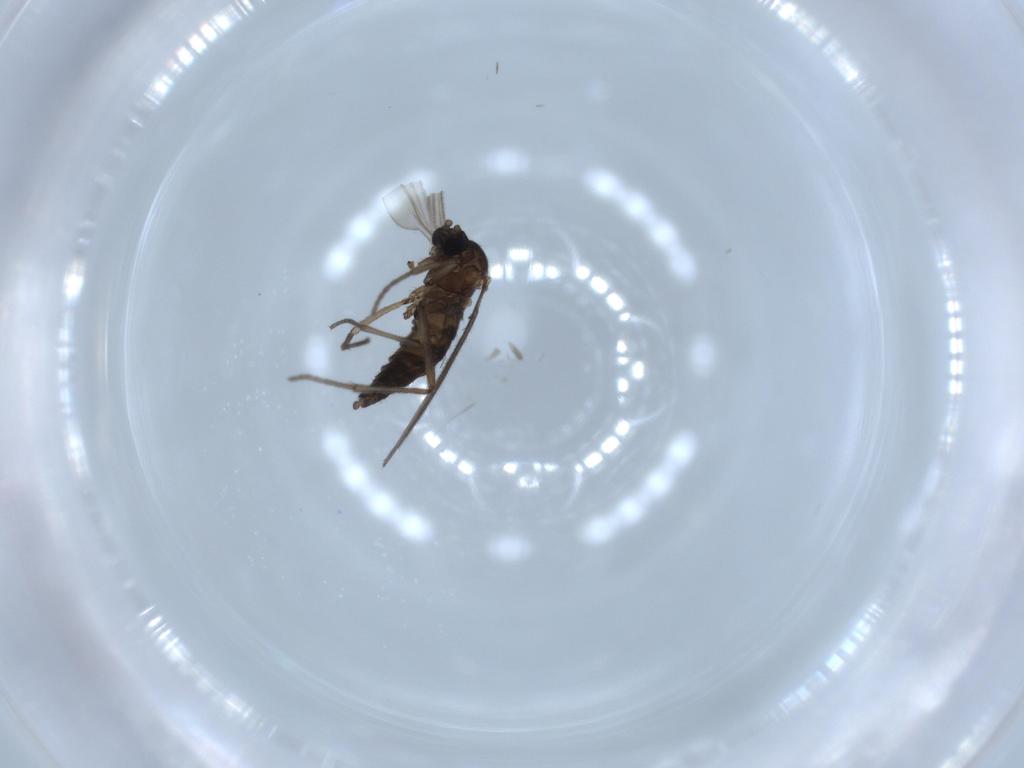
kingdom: Animalia
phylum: Arthropoda
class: Insecta
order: Diptera
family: Sciaridae
